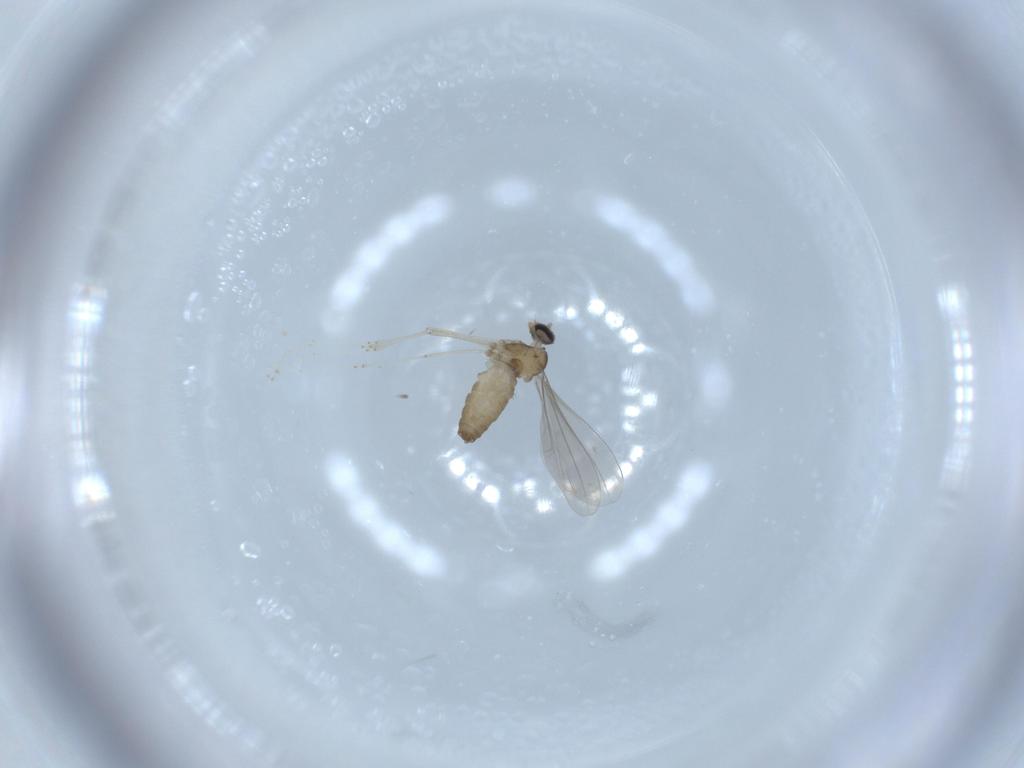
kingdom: Animalia
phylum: Arthropoda
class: Insecta
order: Diptera
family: Cecidomyiidae
